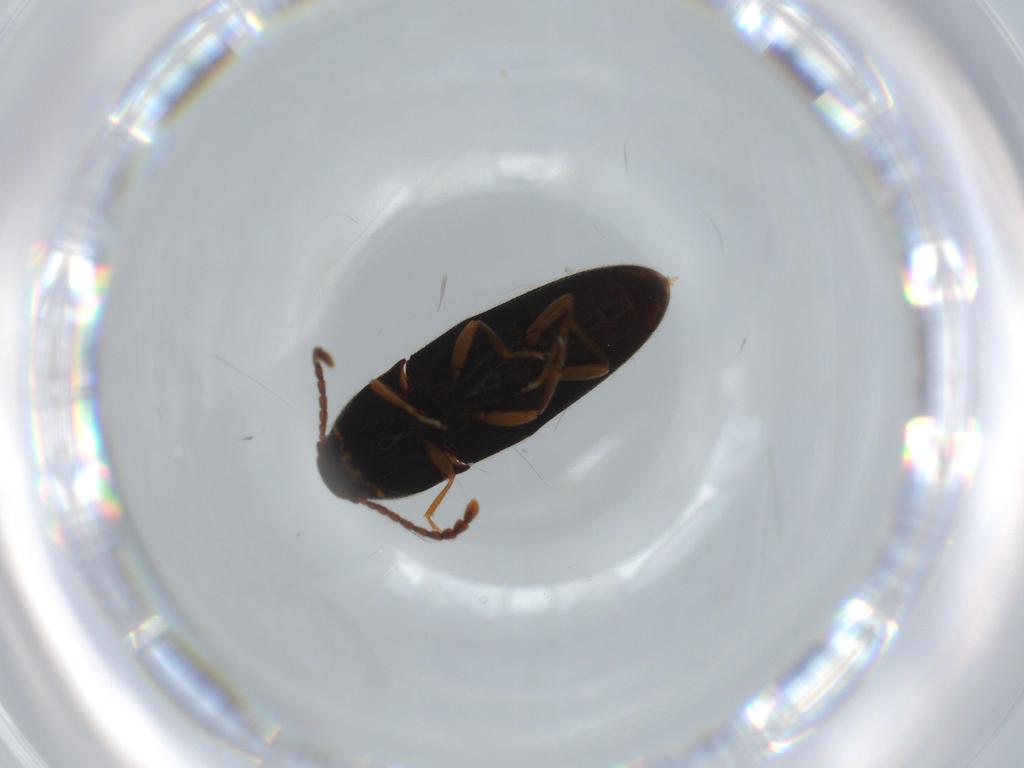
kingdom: Animalia
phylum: Arthropoda
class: Insecta
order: Coleoptera
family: Elateridae
